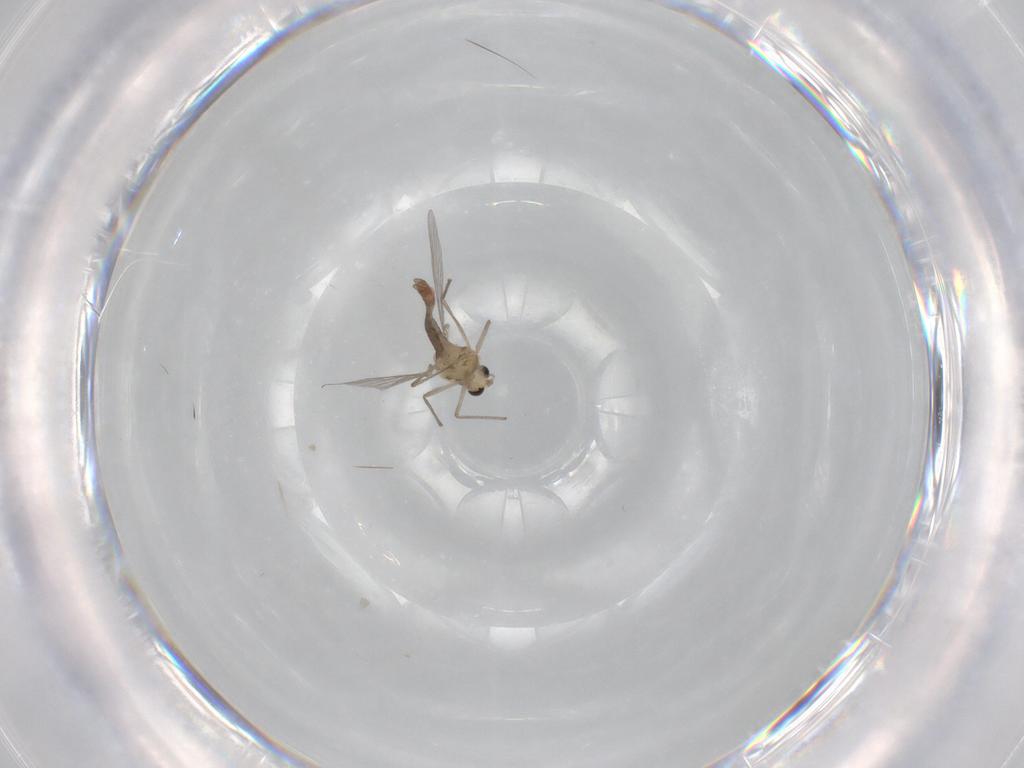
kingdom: Animalia
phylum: Arthropoda
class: Insecta
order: Diptera
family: Chironomidae
